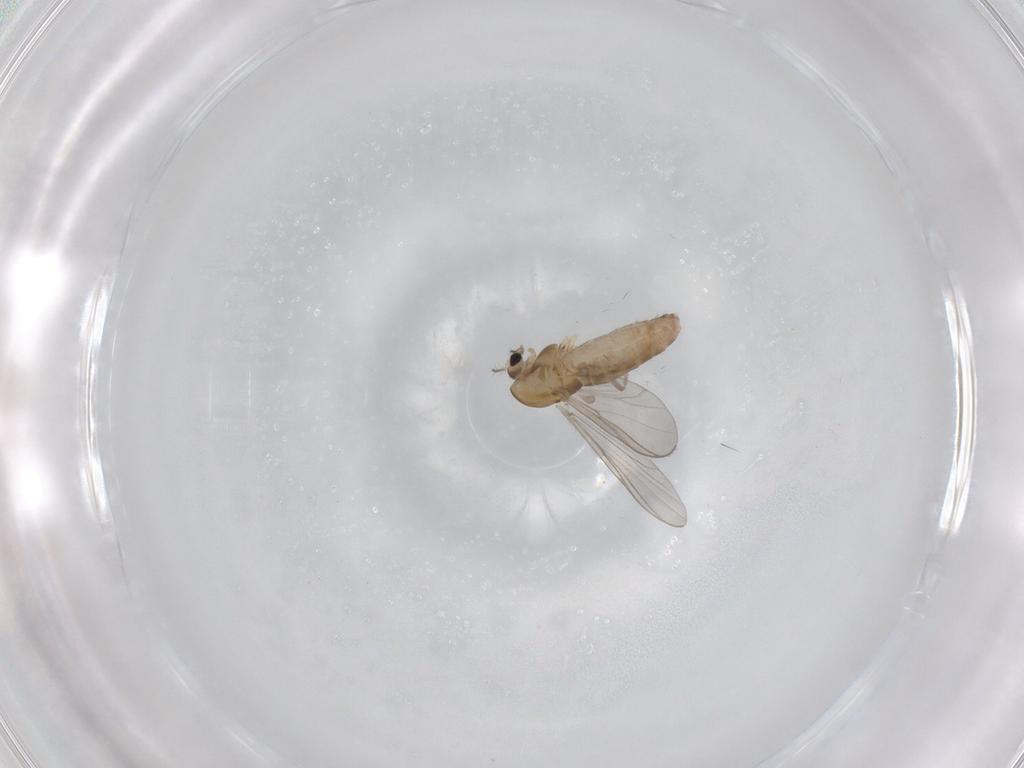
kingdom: Animalia
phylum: Arthropoda
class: Insecta
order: Diptera
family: Chironomidae
